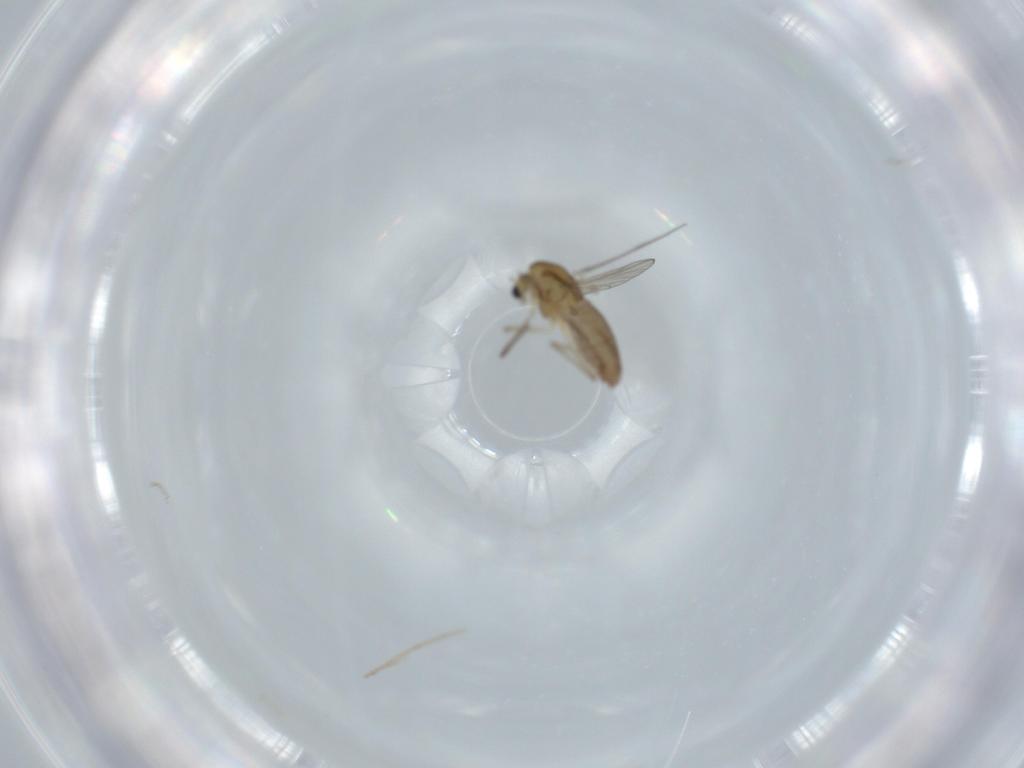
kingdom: Animalia
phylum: Arthropoda
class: Insecta
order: Diptera
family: Chironomidae
